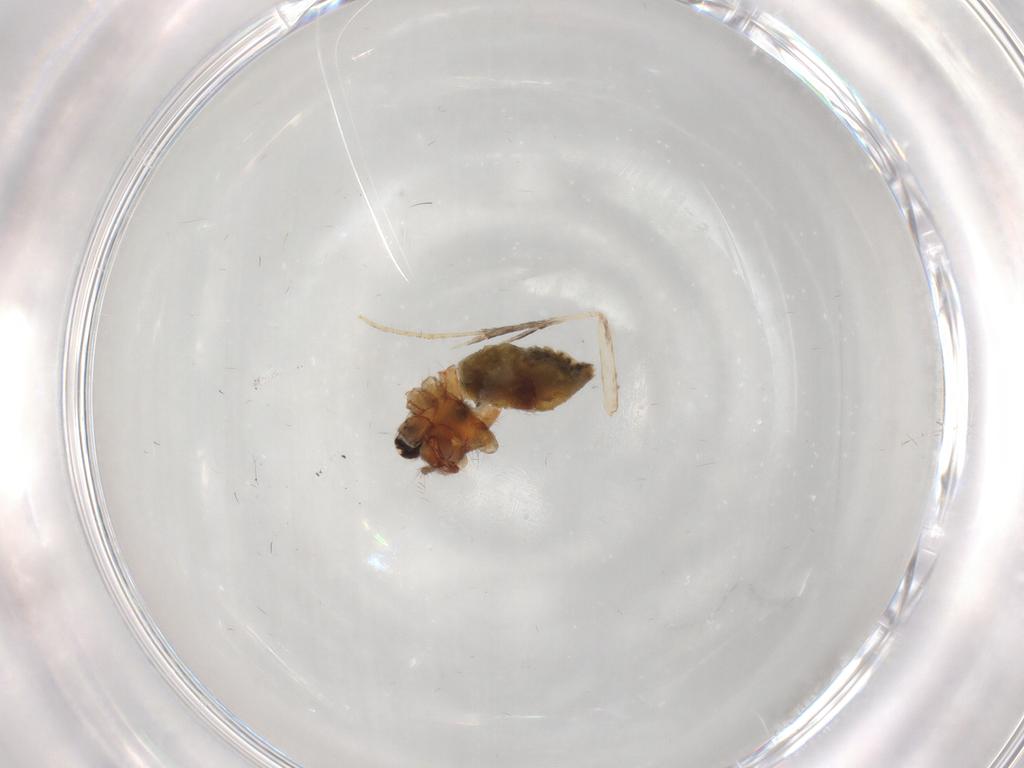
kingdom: Animalia
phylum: Arthropoda
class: Arachnida
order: Araneae
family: Pholcidae
